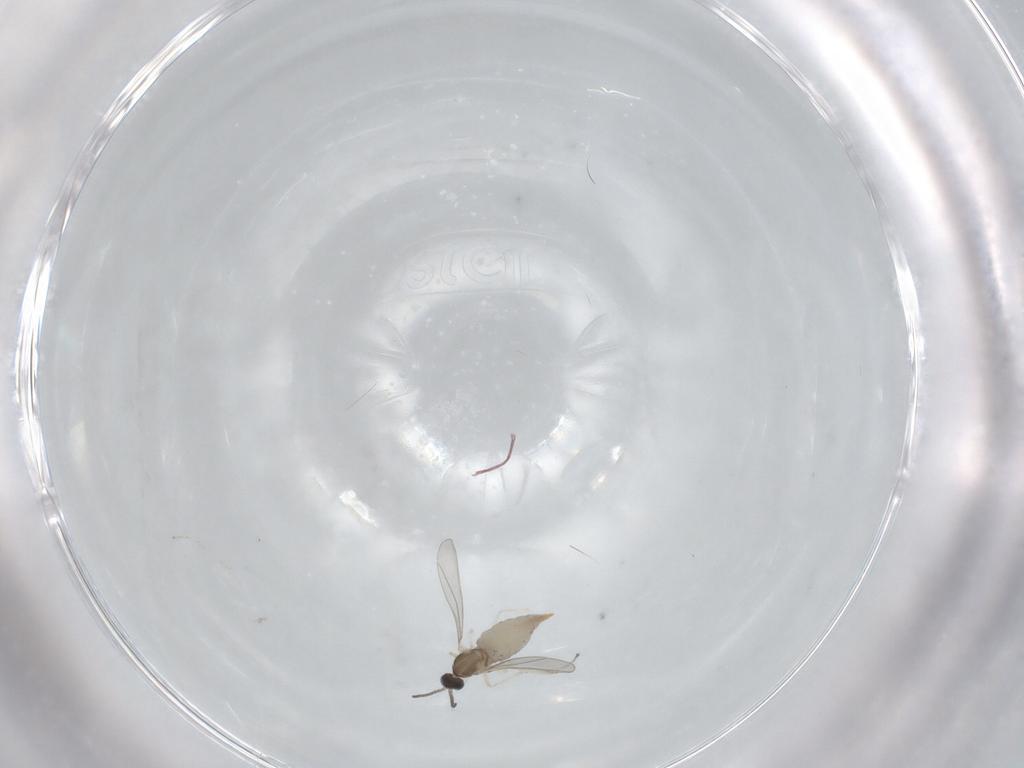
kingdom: Animalia
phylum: Arthropoda
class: Insecta
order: Diptera
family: Cecidomyiidae
